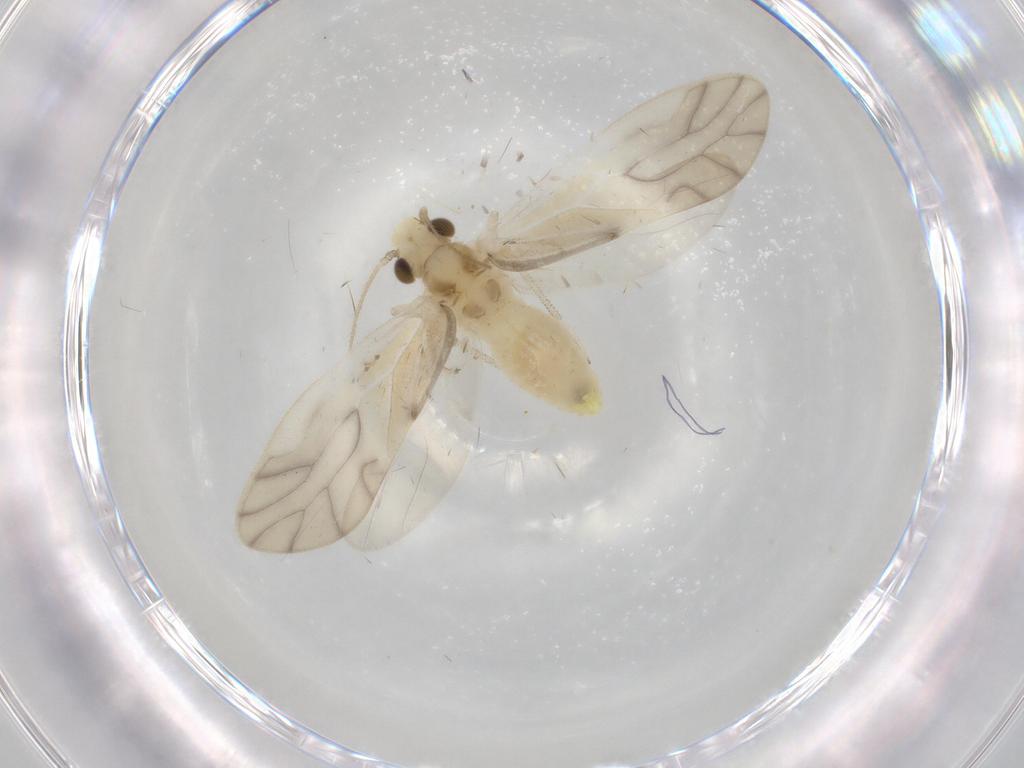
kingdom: Animalia
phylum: Arthropoda
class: Insecta
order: Psocodea
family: Caeciliusidae
